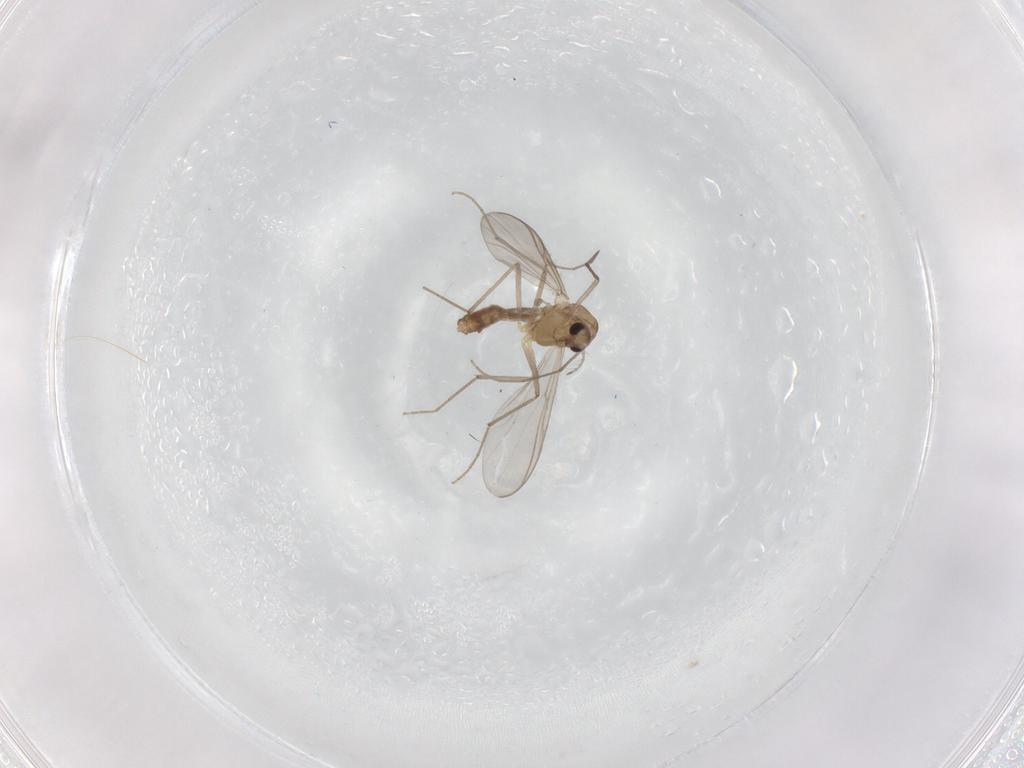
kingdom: Animalia
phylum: Arthropoda
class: Insecta
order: Diptera
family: Chironomidae
